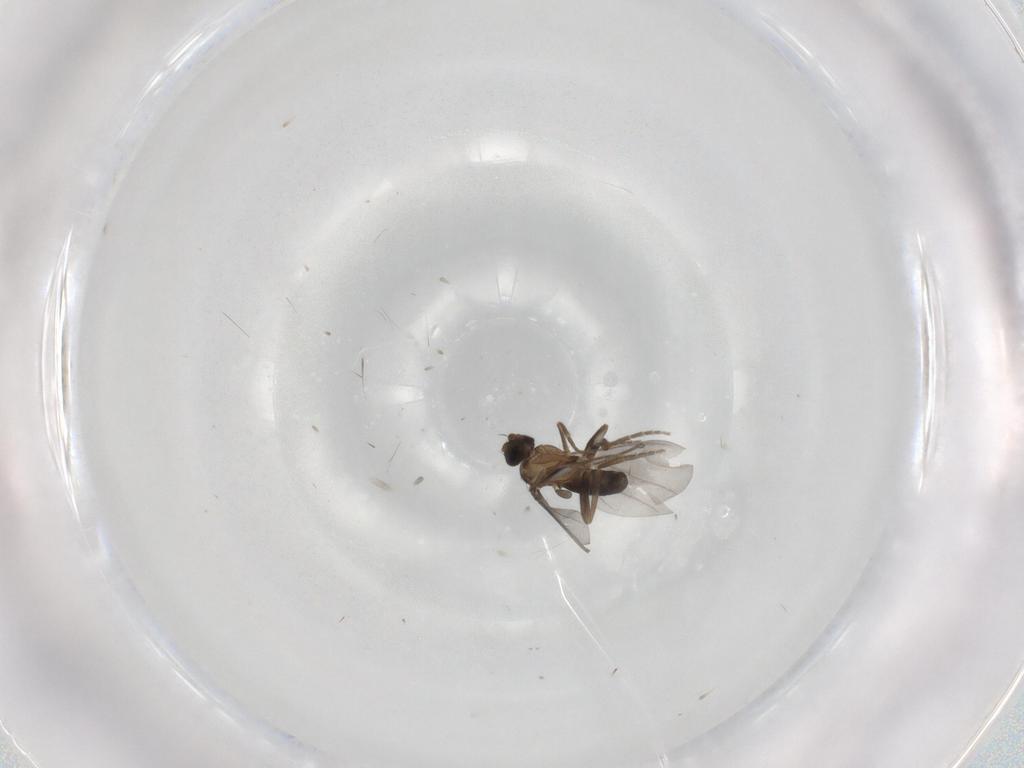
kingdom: Animalia
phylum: Arthropoda
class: Insecta
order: Diptera
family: Phoridae
